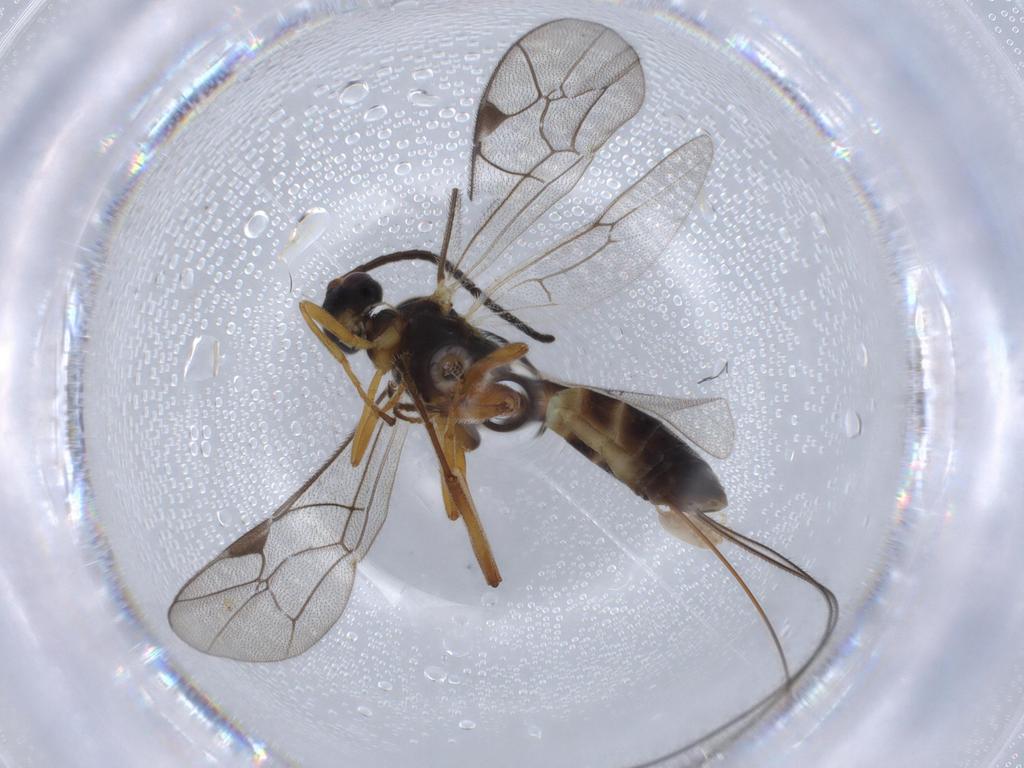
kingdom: Animalia
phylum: Arthropoda
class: Insecta
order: Hymenoptera
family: Ichneumonidae
